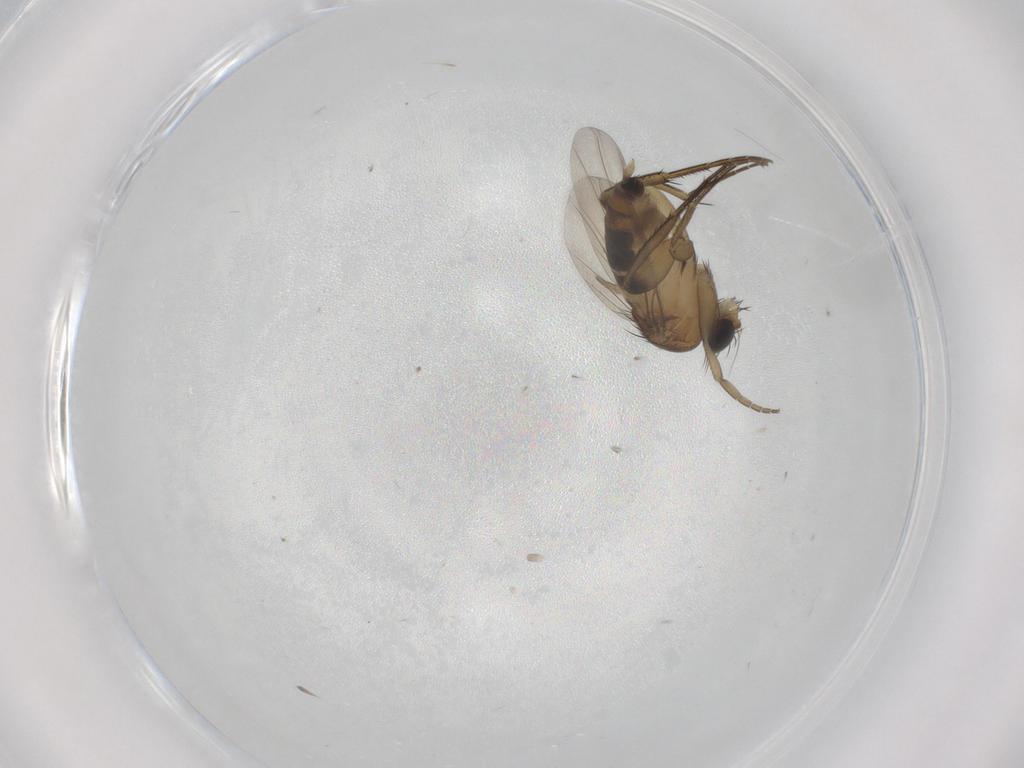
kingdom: Animalia
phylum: Arthropoda
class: Insecta
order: Diptera
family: Phoridae
